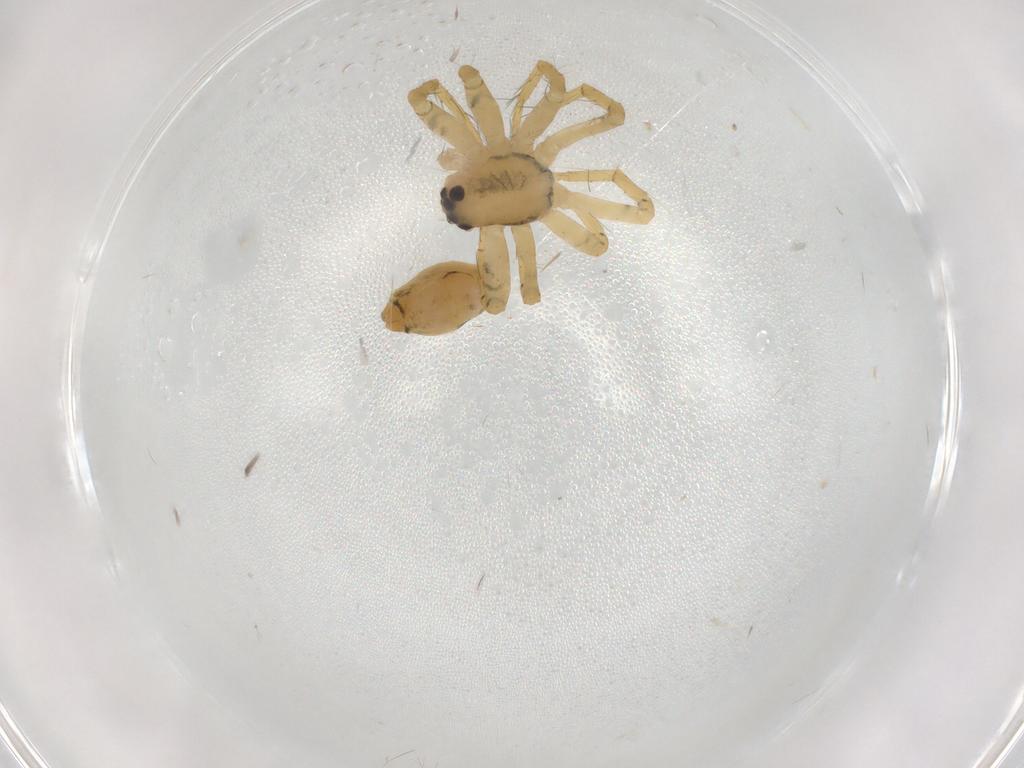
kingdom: Animalia
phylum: Arthropoda
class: Arachnida
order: Araneae
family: Pisauridae
